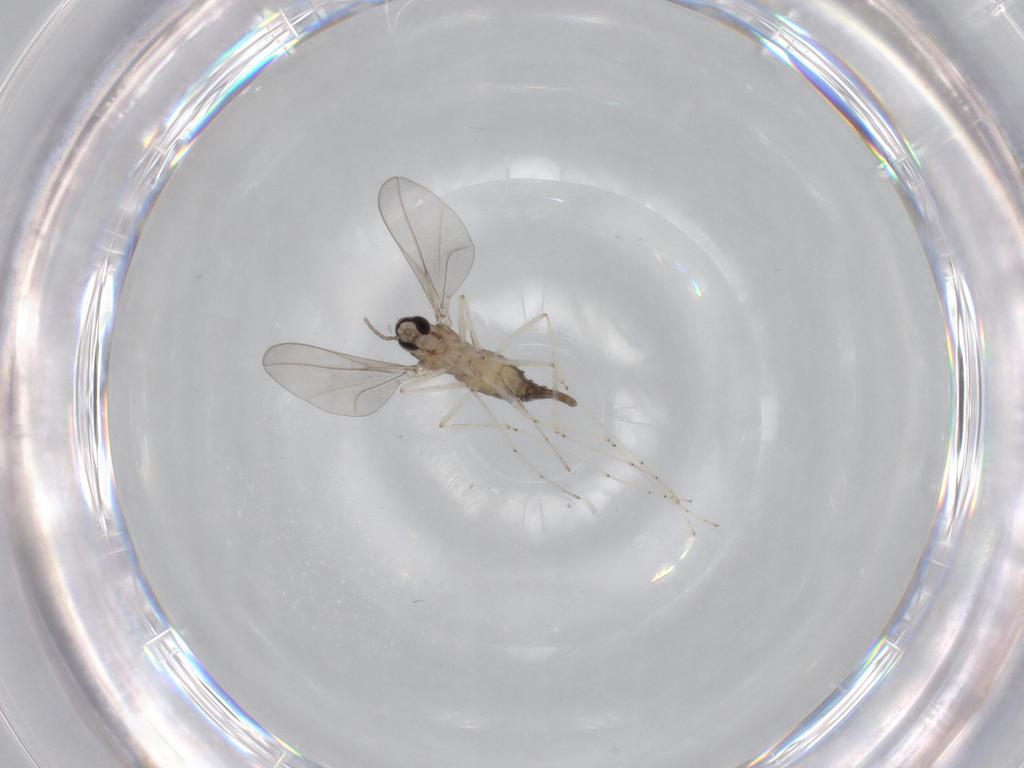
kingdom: Animalia
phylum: Arthropoda
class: Insecta
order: Diptera
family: Cecidomyiidae
